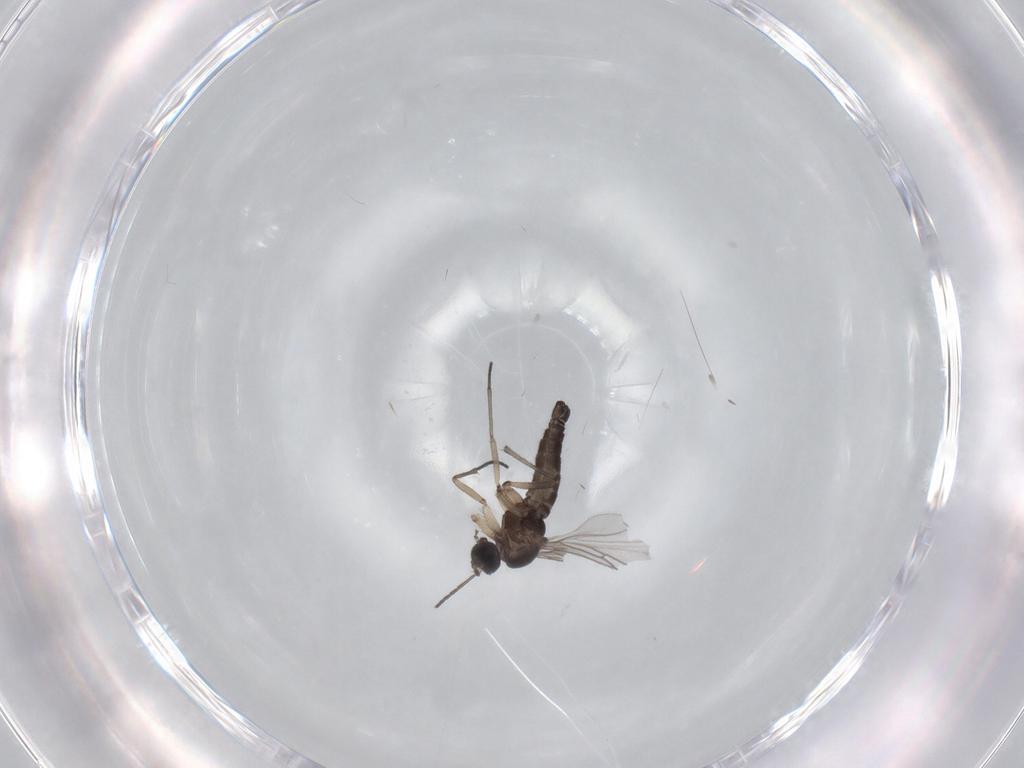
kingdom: Animalia
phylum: Arthropoda
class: Insecta
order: Diptera
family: Sciaridae
